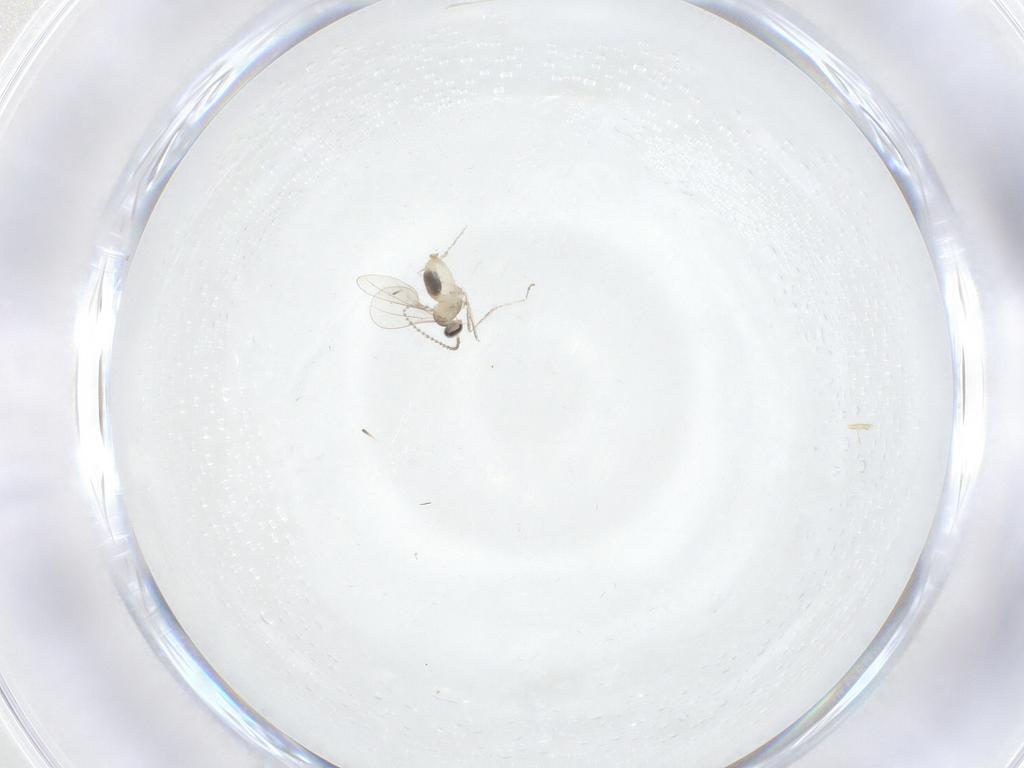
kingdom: Animalia
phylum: Arthropoda
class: Insecta
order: Diptera
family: Cecidomyiidae
